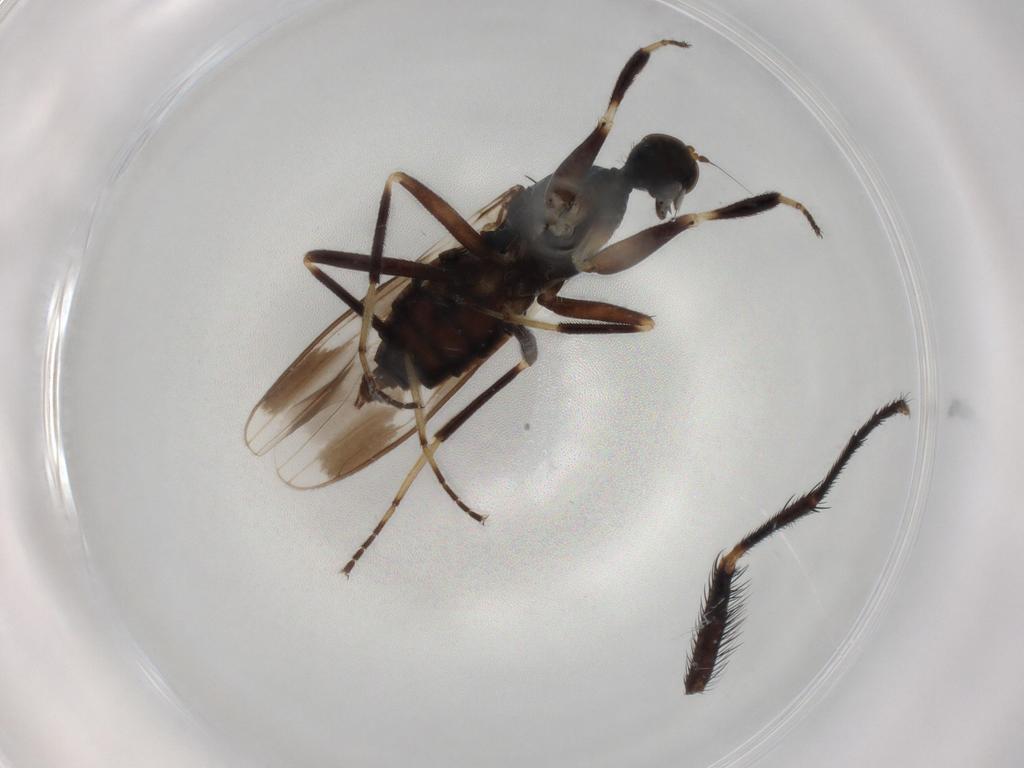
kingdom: Animalia
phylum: Arthropoda
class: Insecta
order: Diptera
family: Hybotidae
